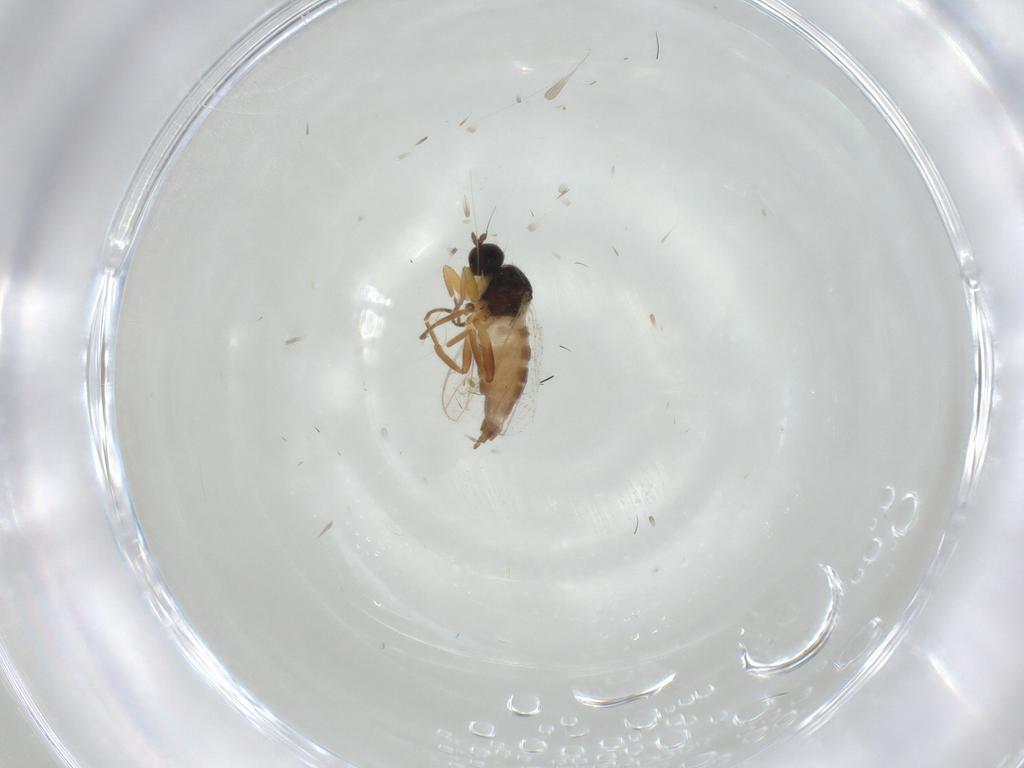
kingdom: Animalia
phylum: Arthropoda
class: Insecta
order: Diptera
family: Hybotidae
